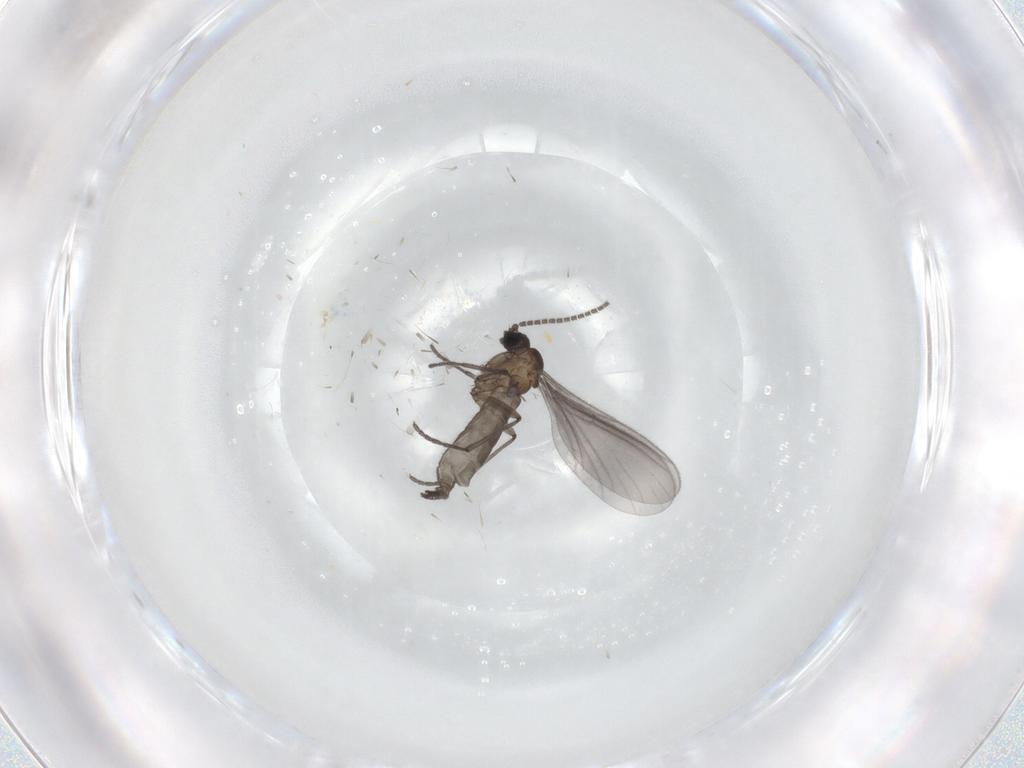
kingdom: Animalia
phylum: Arthropoda
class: Insecta
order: Diptera
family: Sciaridae
